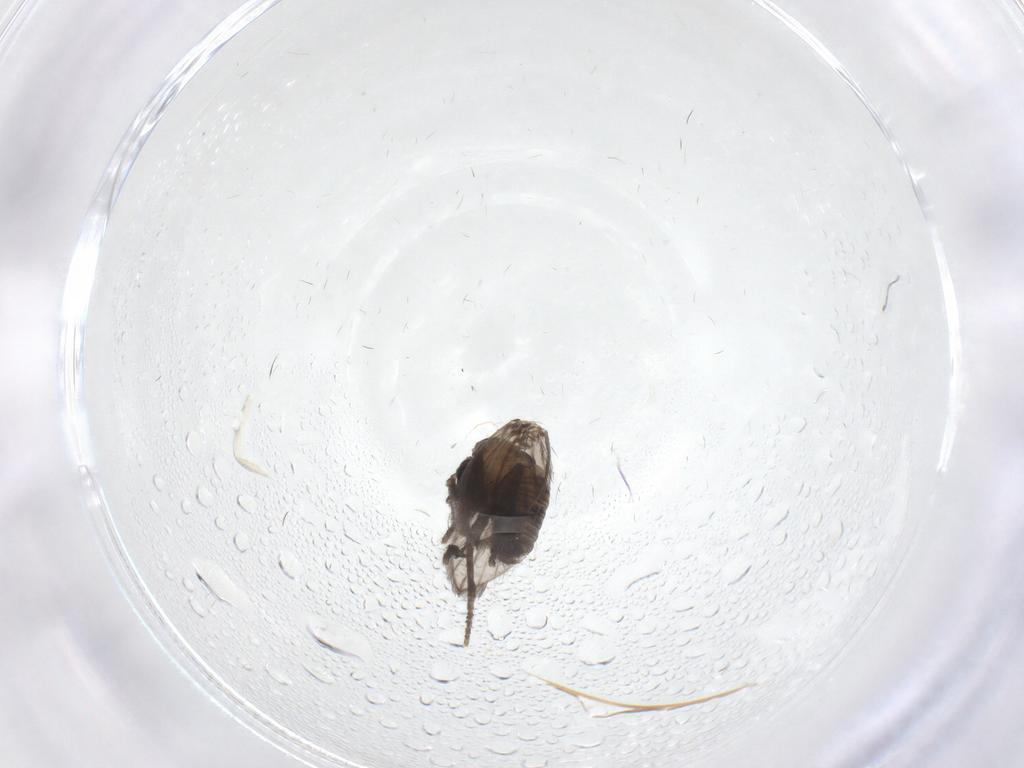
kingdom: Animalia
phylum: Arthropoda
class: Insecta
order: Diptera
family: Psychodidae
